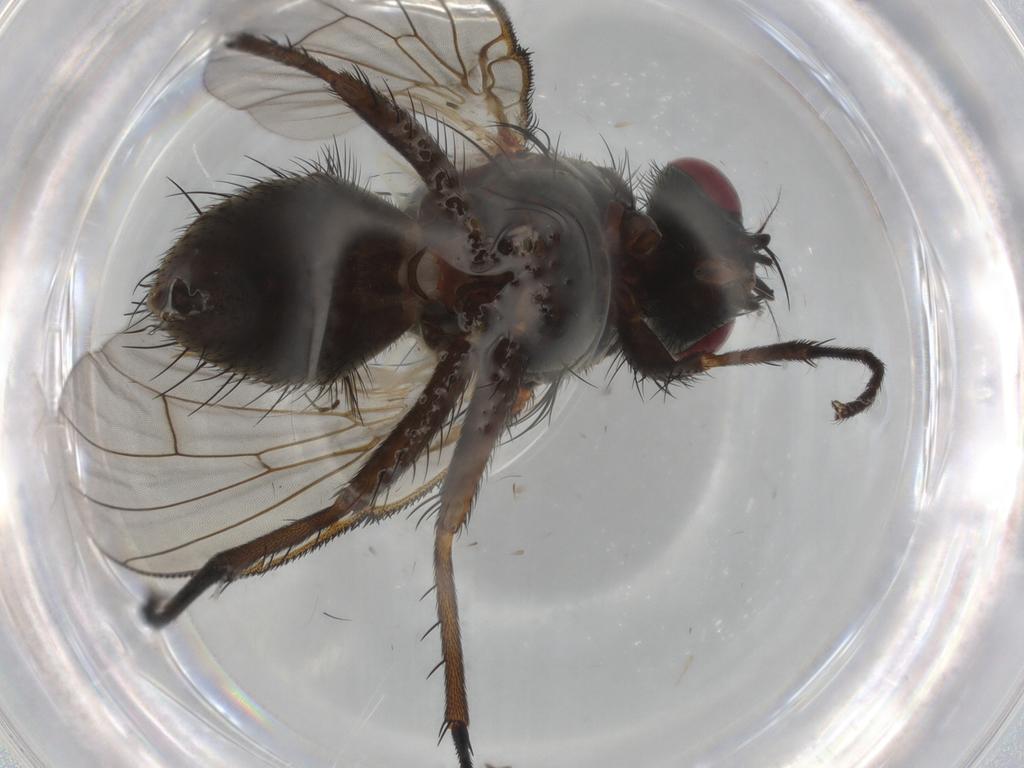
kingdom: Animalia
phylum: Arthropoda
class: Insecta
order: Diptera
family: Muscidae
